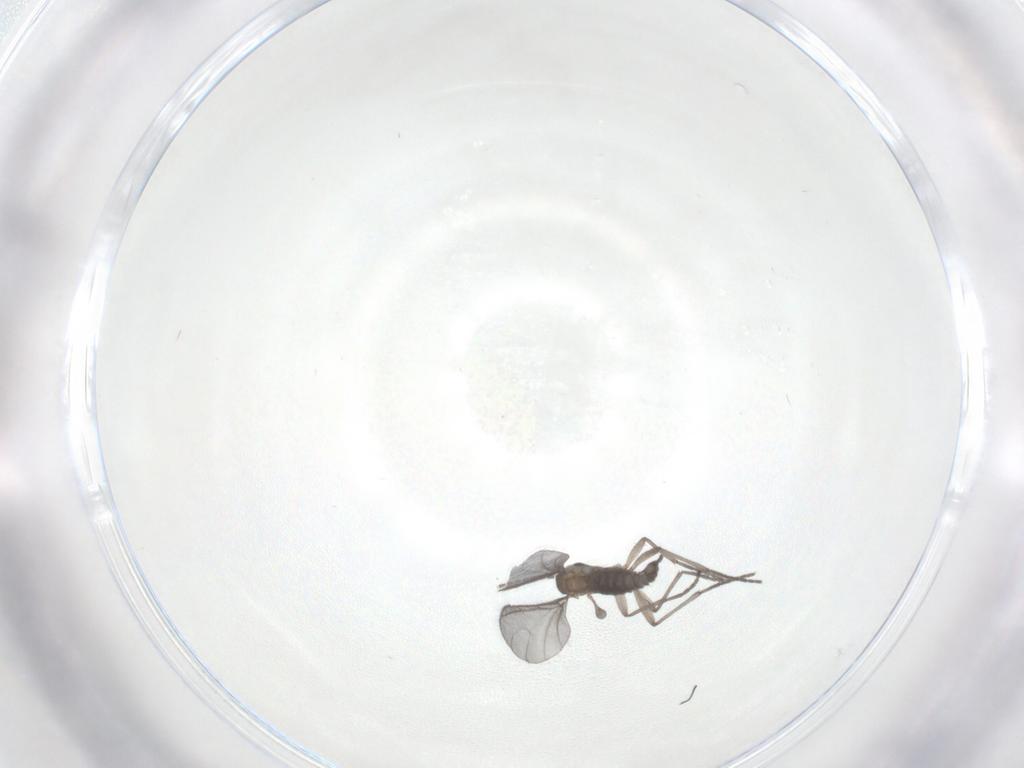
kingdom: Animalia
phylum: Arthropoda
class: Insecta
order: Diptera
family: Sciaridae
